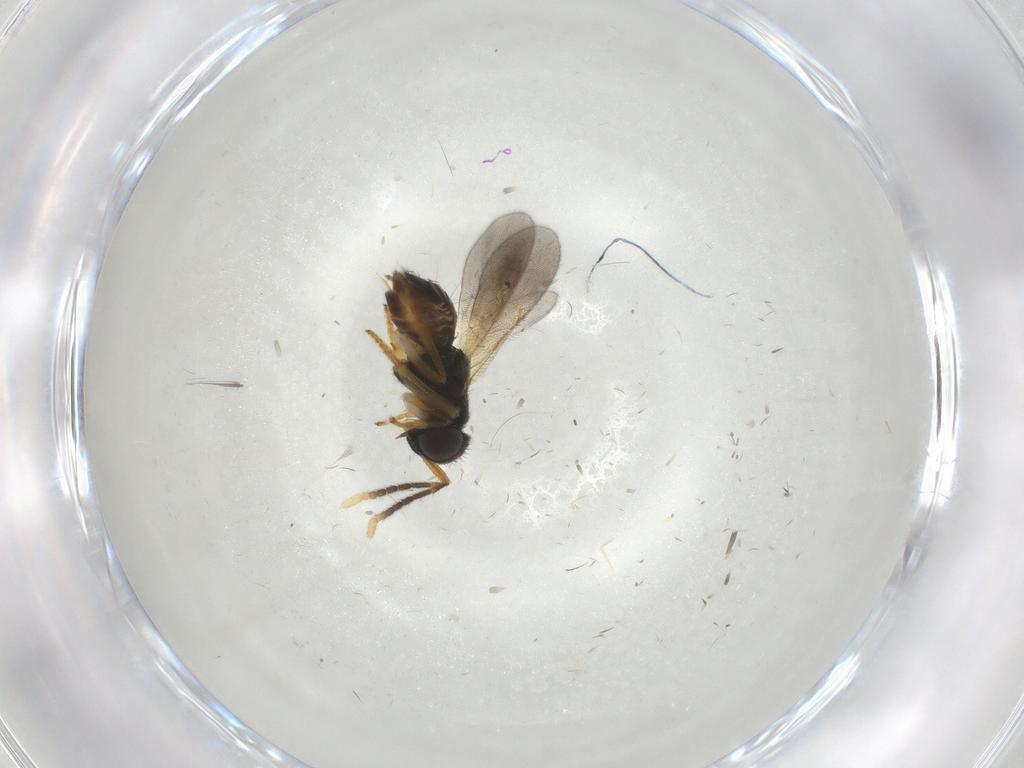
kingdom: Animalia
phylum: Arthropoda
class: Insecta
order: Hymenoptera
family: Formicidae
